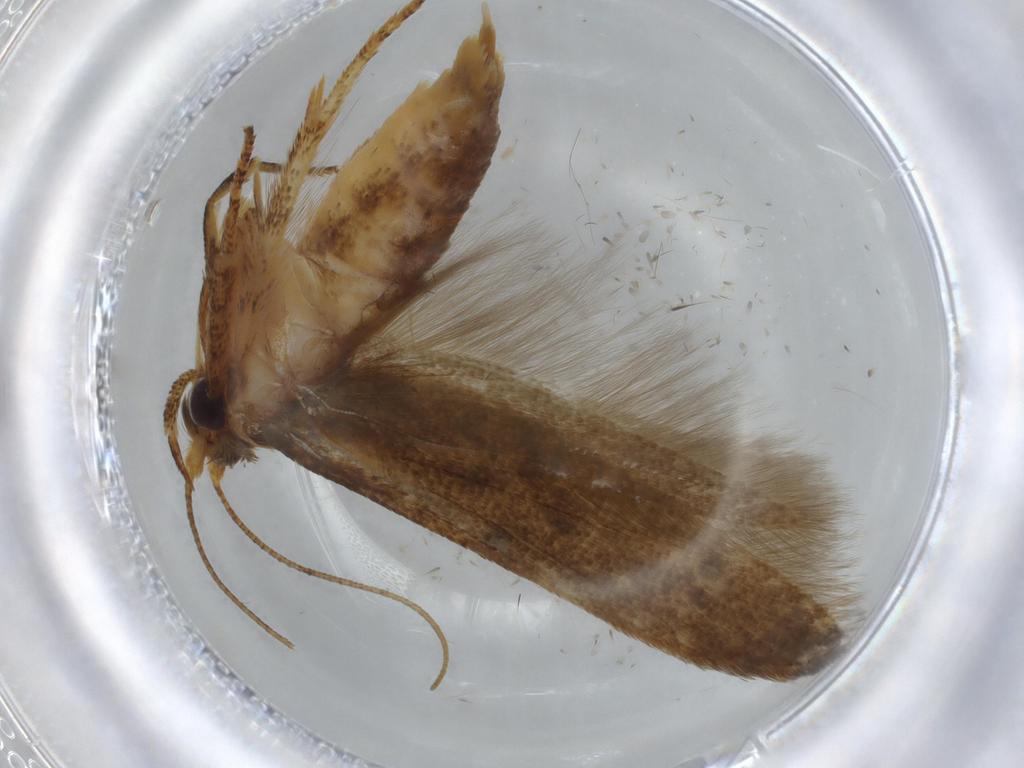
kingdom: Animalia
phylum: Arthropoda
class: Insecta
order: Lepidoptera
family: Coleophoridae
